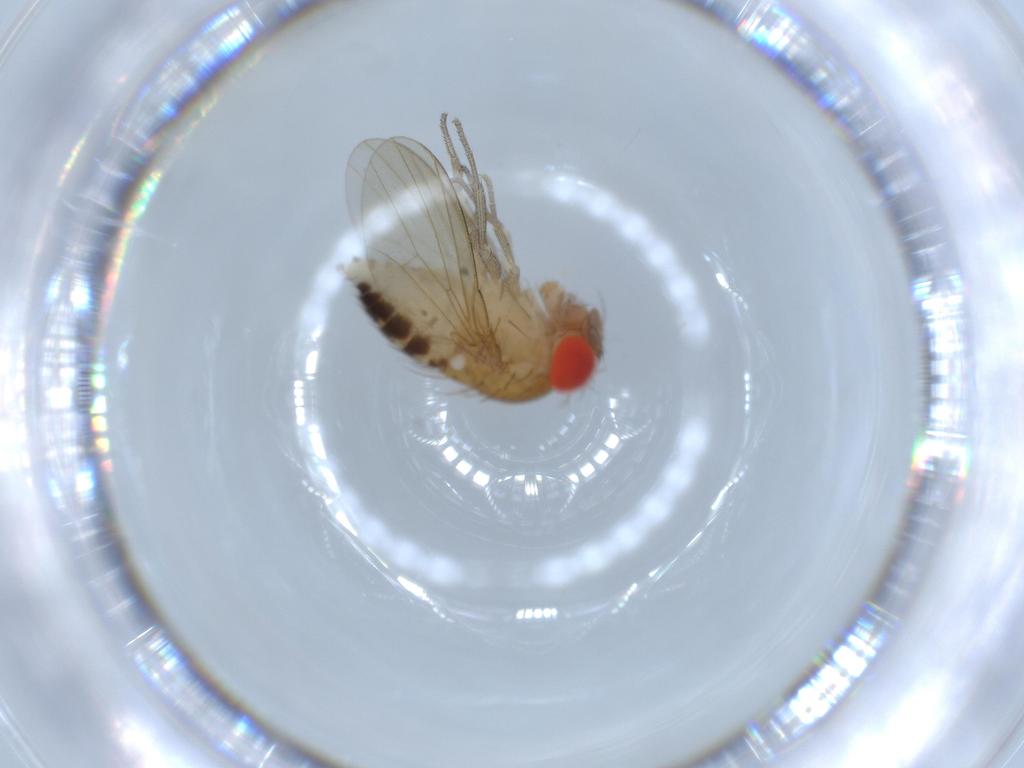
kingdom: Animalia
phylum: Arthropoda
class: Insecta
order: Diptera
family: Drosophilidae
